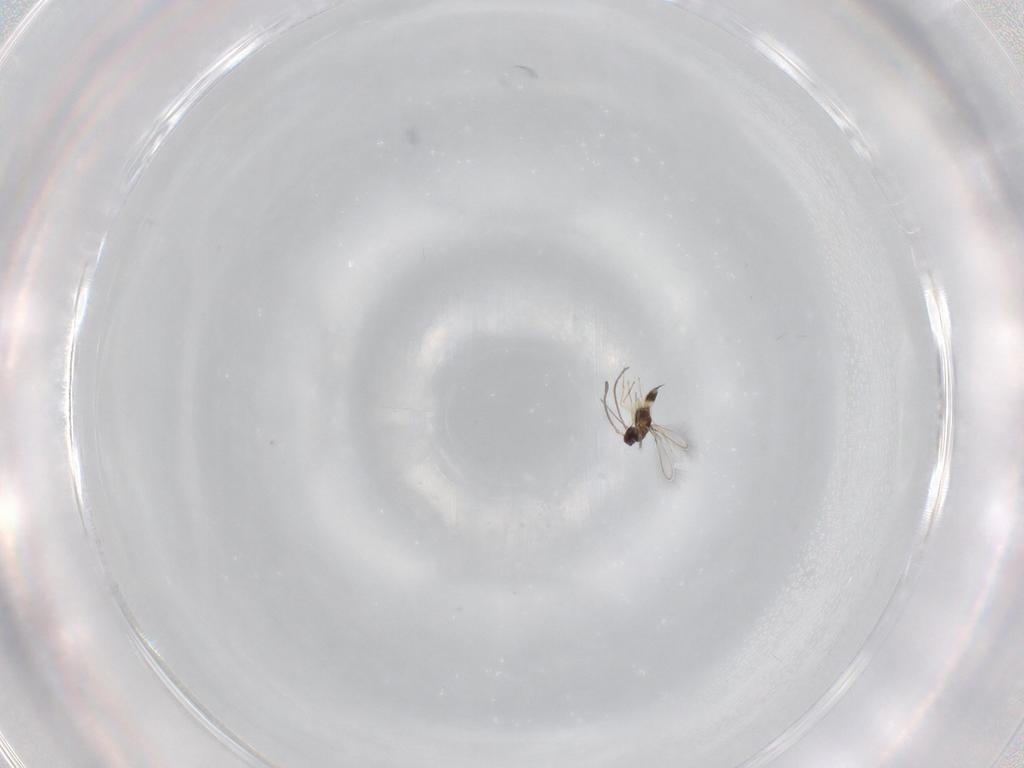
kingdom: Animalia
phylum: Arthropoda
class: Insecta
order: Hymenoptera
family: Mymaridae
